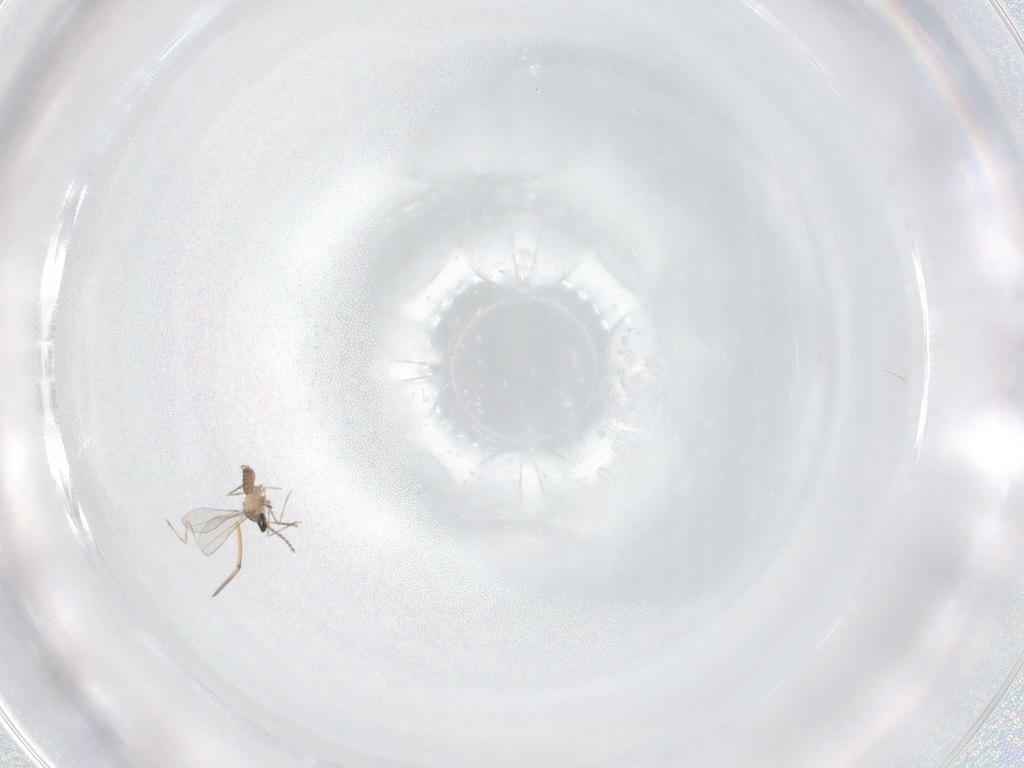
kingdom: Animalia
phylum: Arthropoda
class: Insecta
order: Diptera
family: Cecidomyiidae
